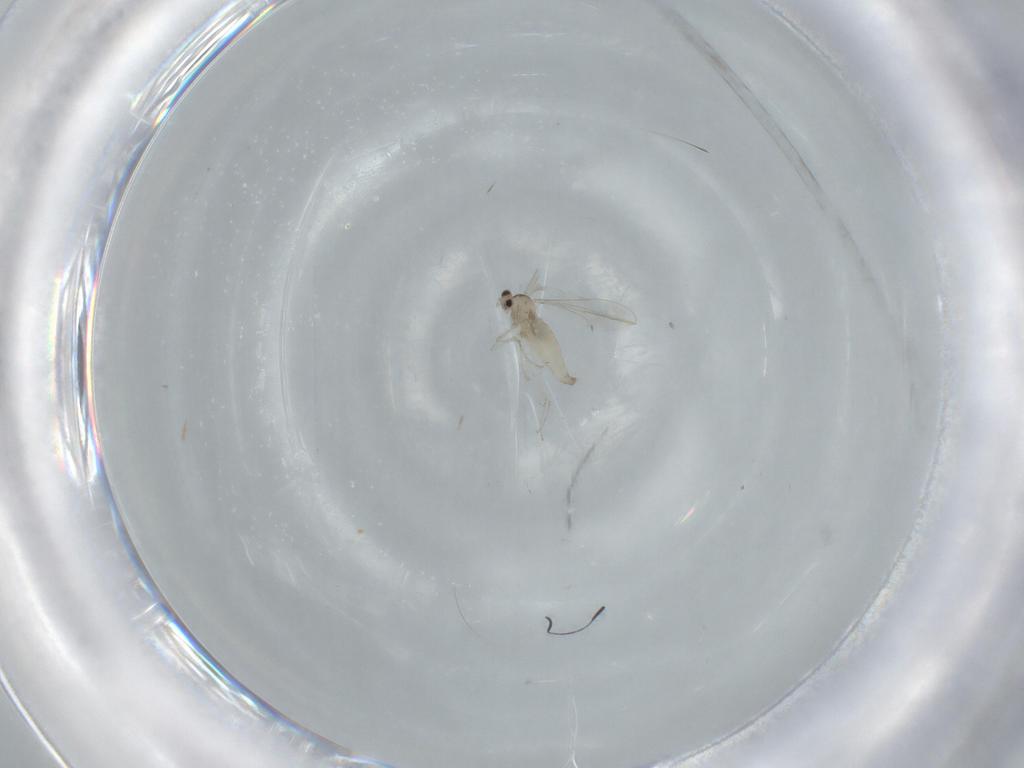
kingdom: Animalia
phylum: Arthropoda
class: Insecta
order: Diptera
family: Cecidomyiidae
